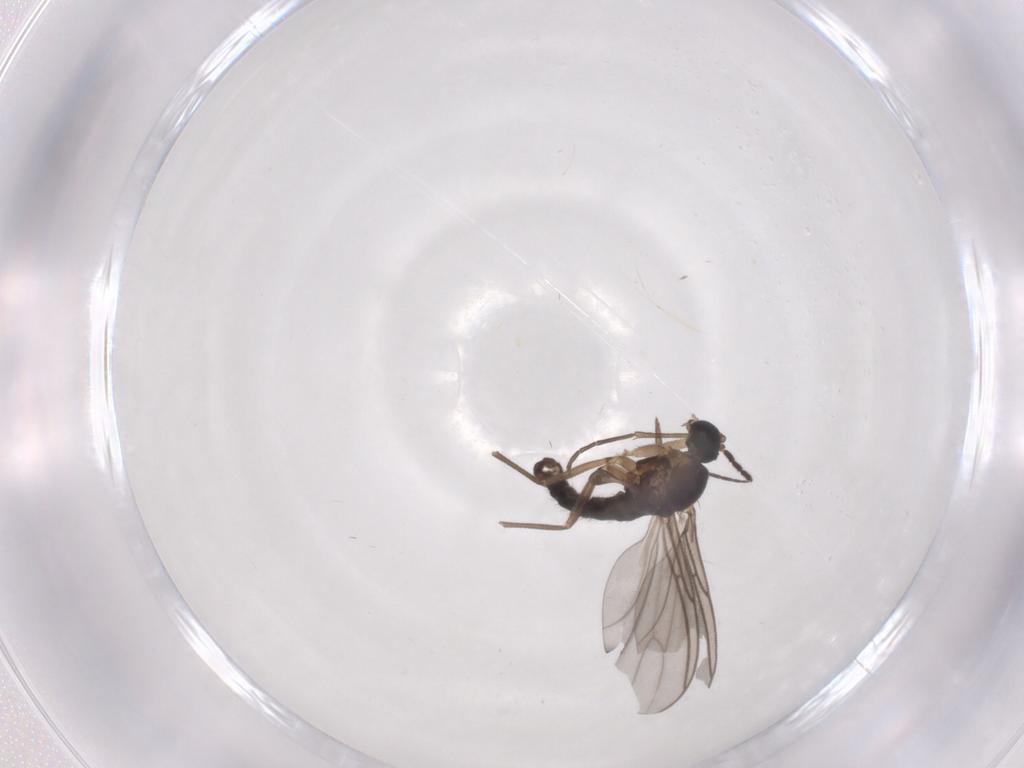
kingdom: Animalia
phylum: Arthropoda
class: Insecta
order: Diptera
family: Sciaridae
